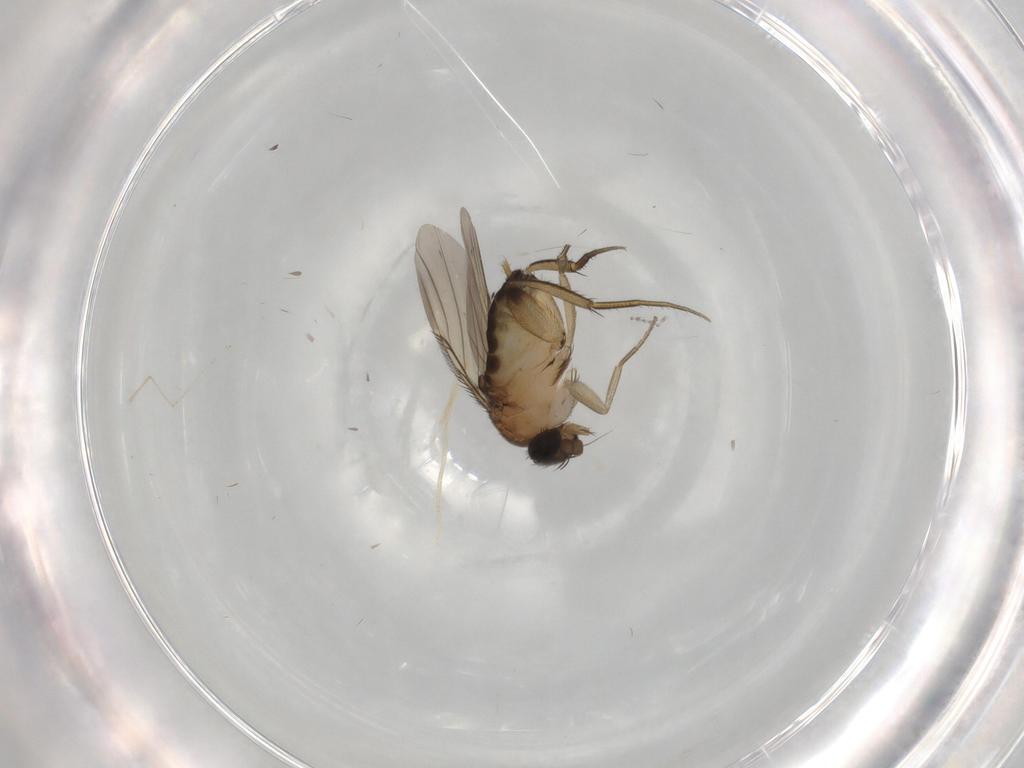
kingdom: Animalia
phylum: Arthropoda
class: Insecta
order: Diptera
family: Phoridae
